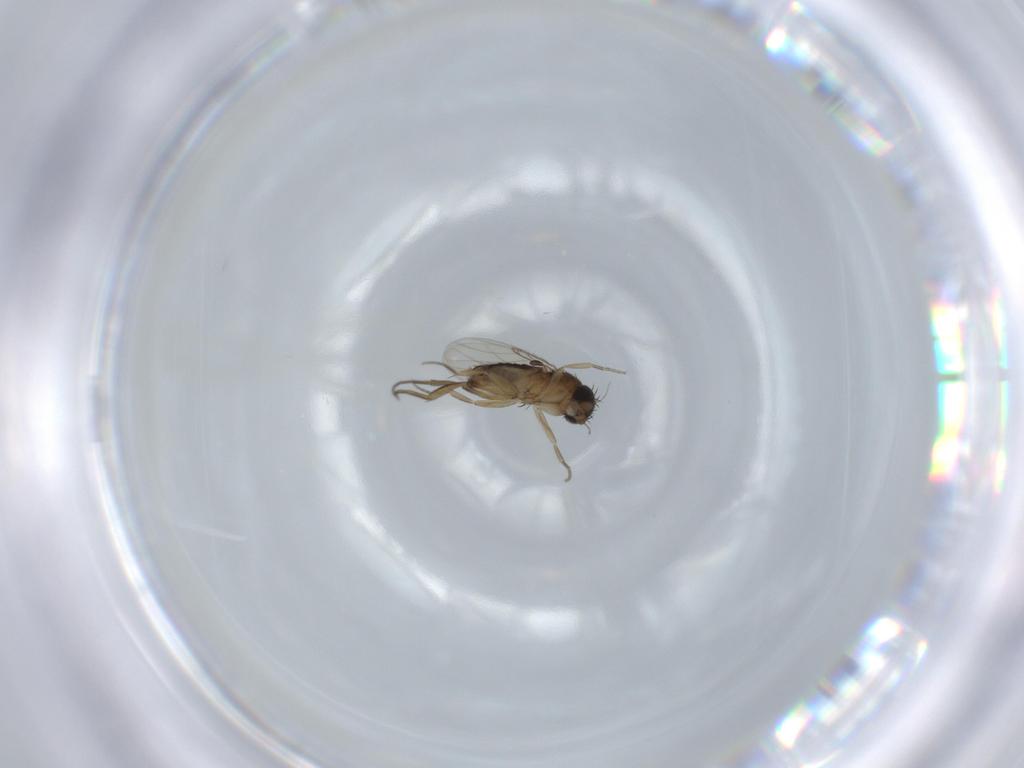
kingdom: Animalia
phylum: Arthropoda
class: Insecta
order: Diptera
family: Phoridae
